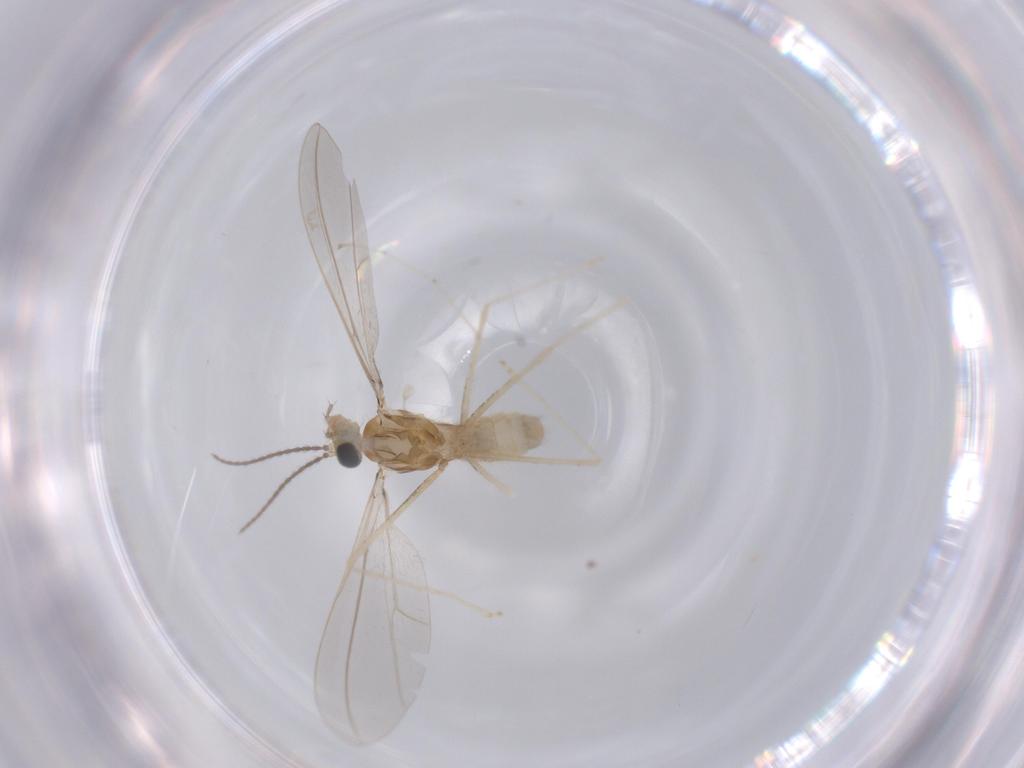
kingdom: Animalia
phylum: Arthropoda
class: Insecta
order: Diptera
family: Cecidomyiidae
